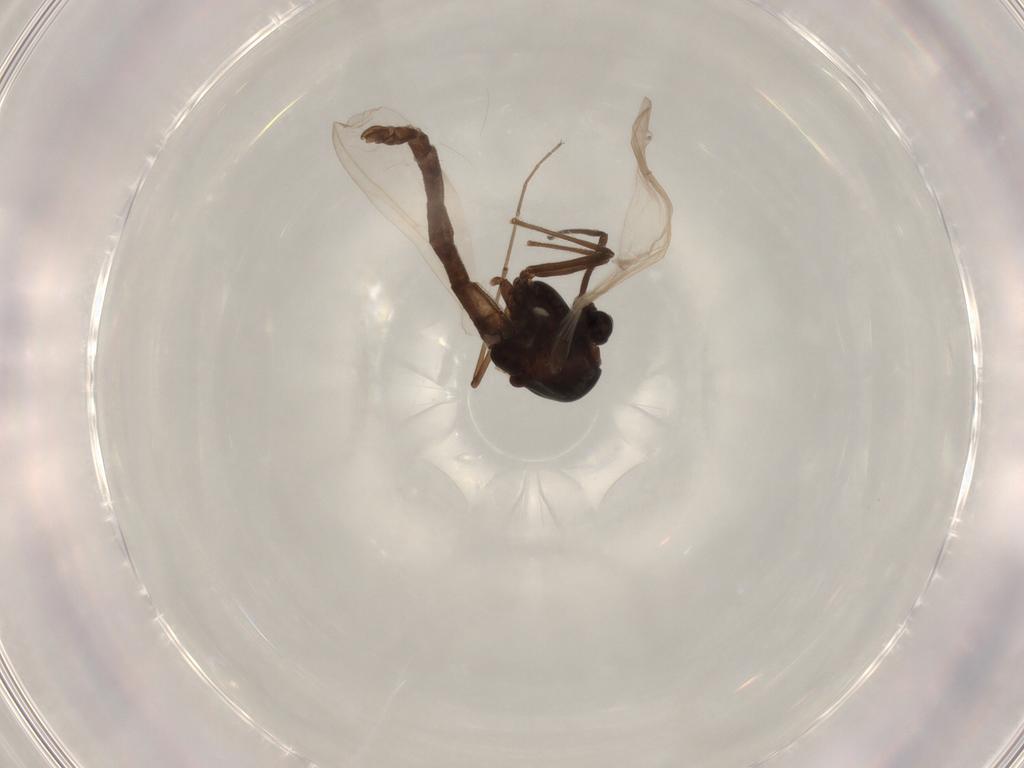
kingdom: Animalia
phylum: Arthropoda
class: Insecta
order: Diptera
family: Chironomidae
